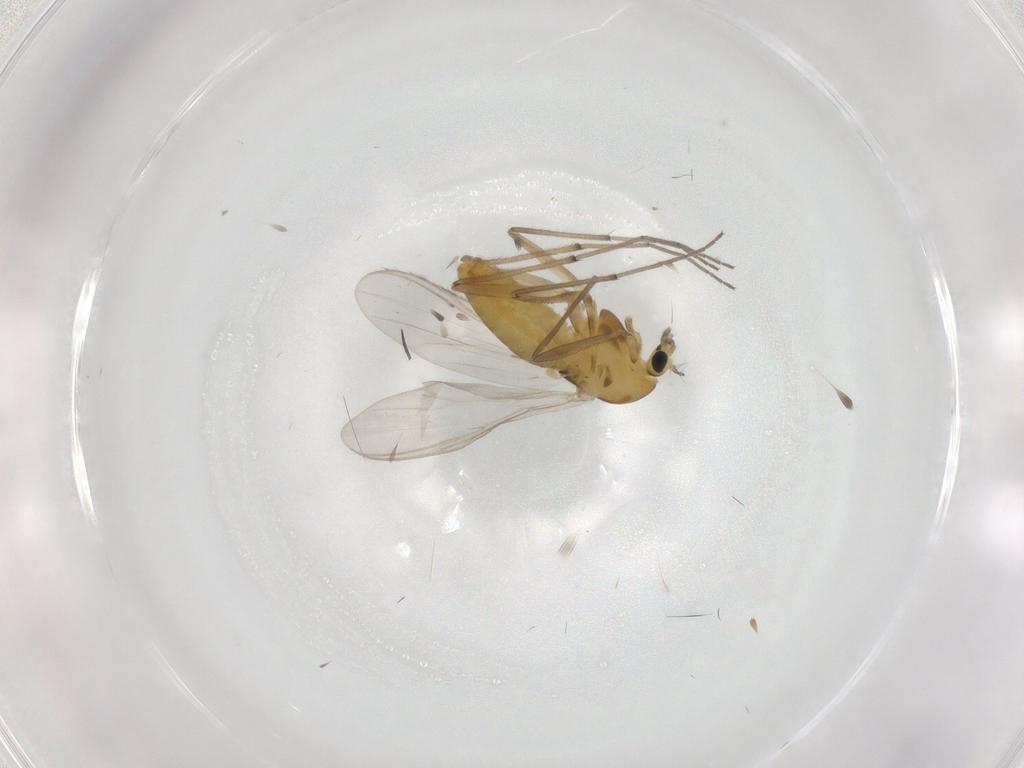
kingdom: Animalia
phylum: Arthropoda
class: Insecta
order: Diptera
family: Chironomidae
